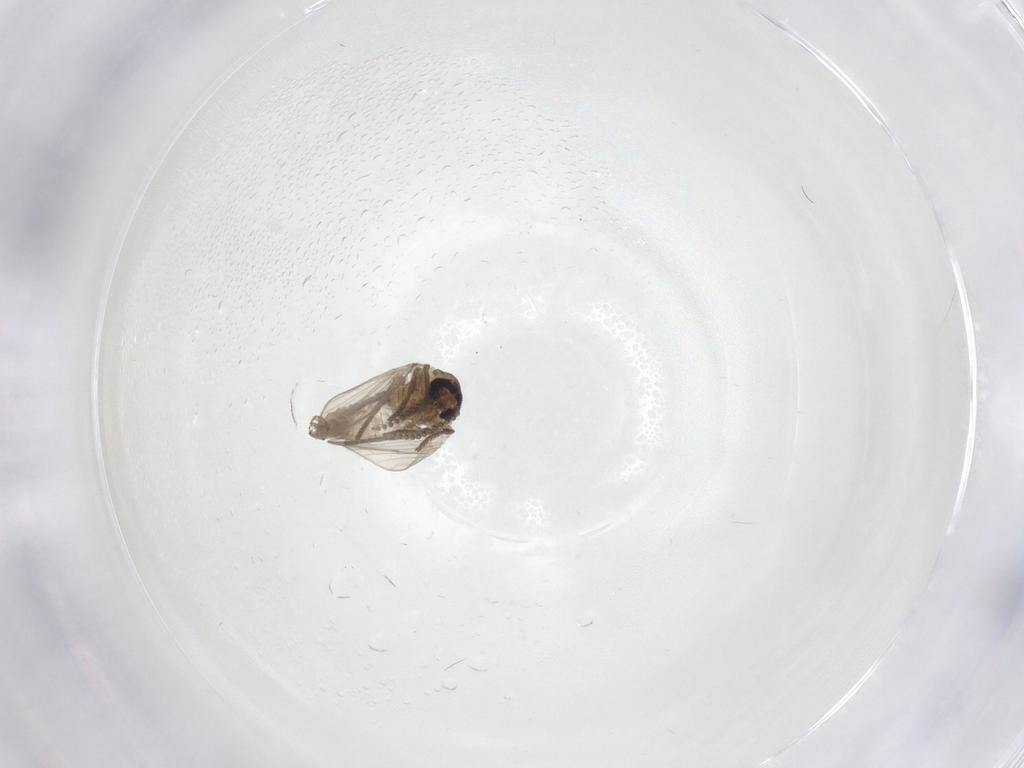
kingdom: Animalia
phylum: Arthropoda
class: Insecta
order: Diptera
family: Psychodidae
